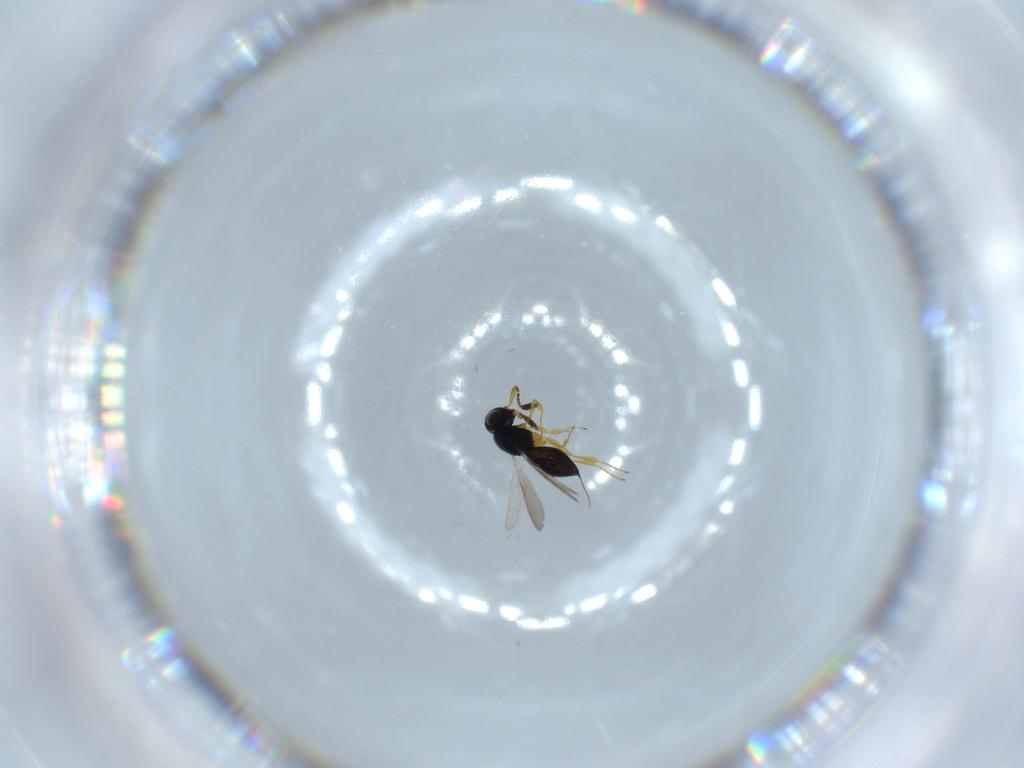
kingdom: Animalia
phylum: Arthropoda
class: Insecta
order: Hymenoptera
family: Scelionidae
